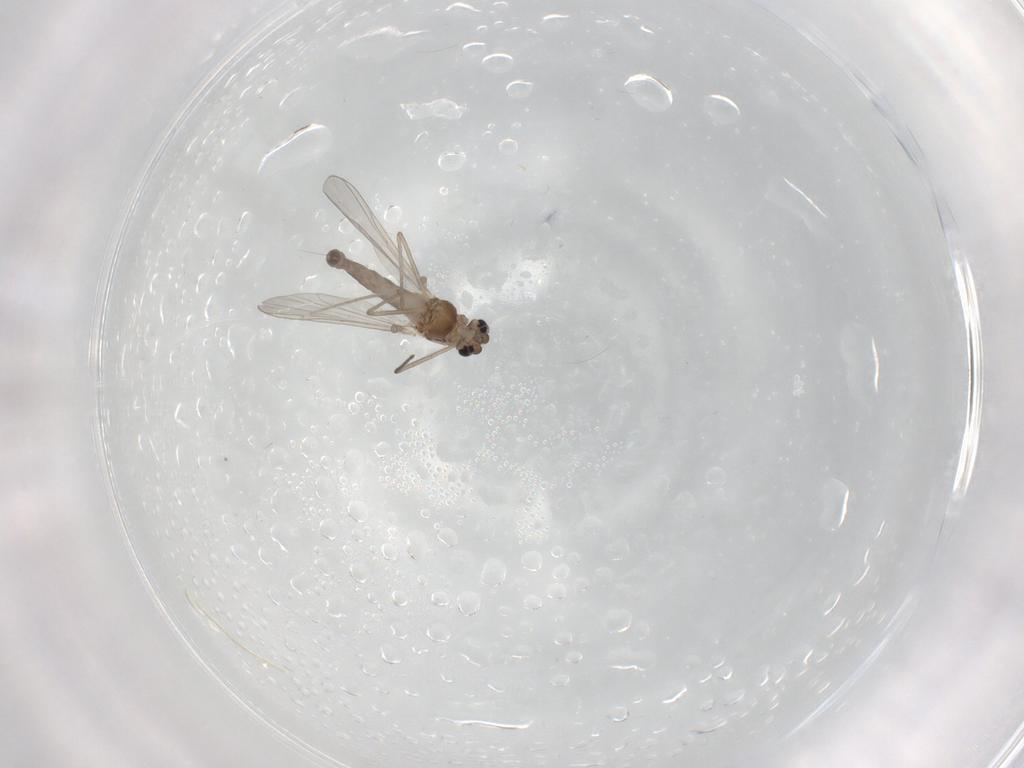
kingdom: Animalia
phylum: Arthropoda
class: Insecta
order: Diptera
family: Chironomidae
